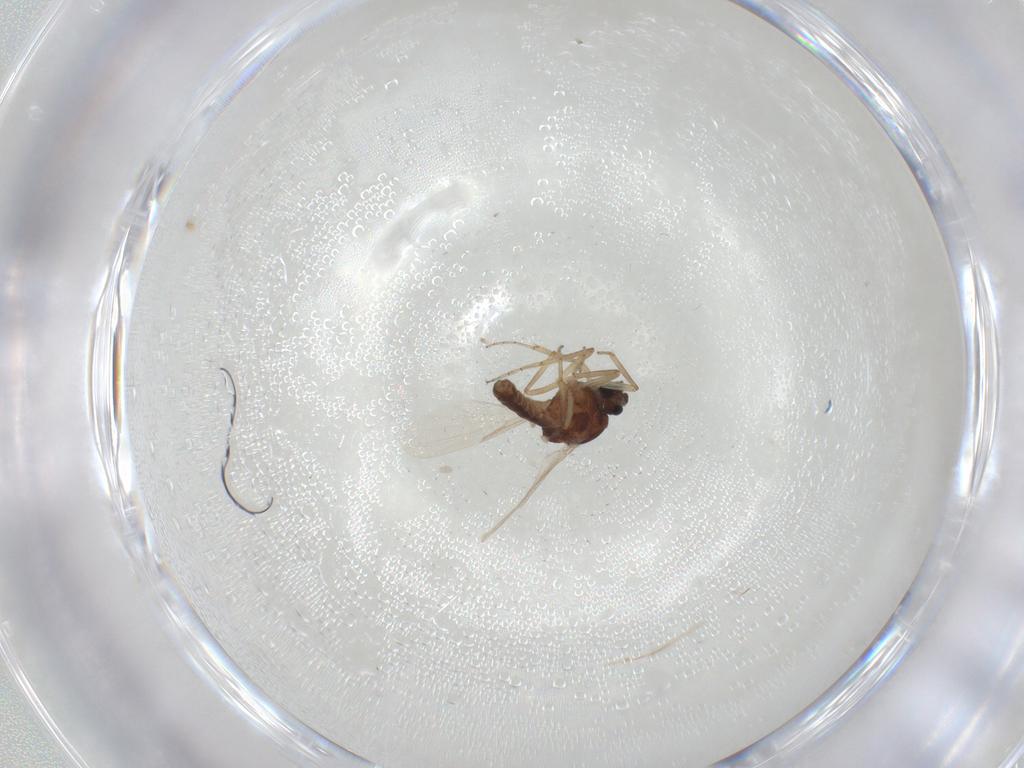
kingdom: Animalia
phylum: Arthropoda
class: Insecta
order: Diptera
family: Ceratopogonidae
